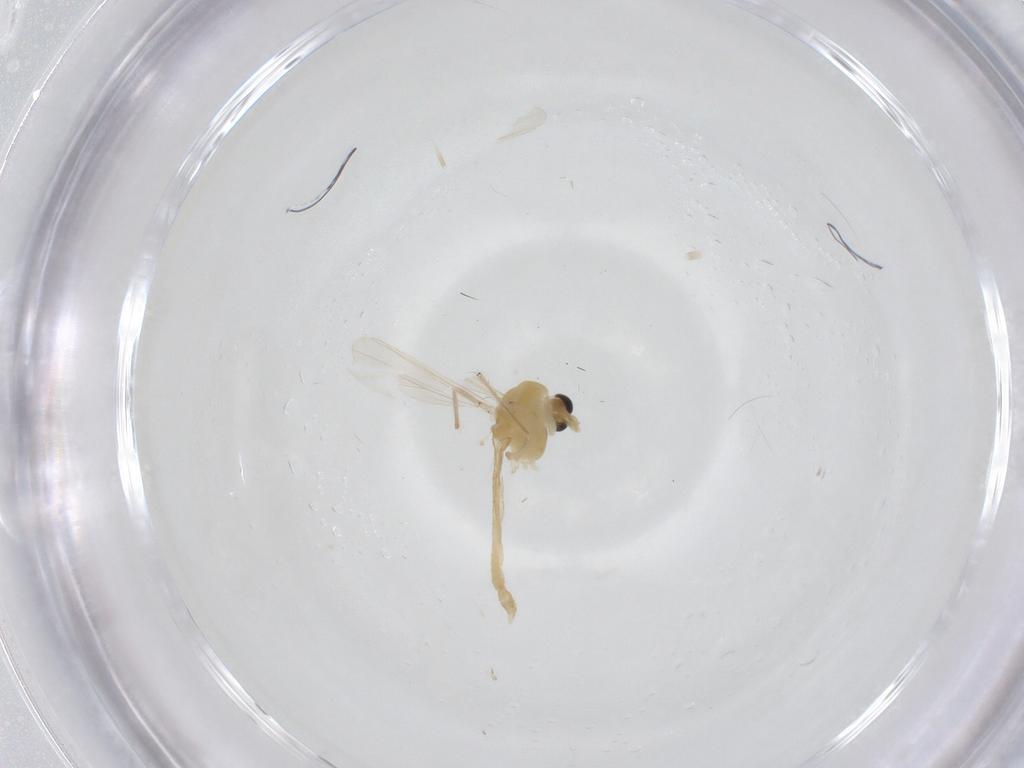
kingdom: Animalia
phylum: Arthropoda
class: Insecta
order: Diptera
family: Chironomidae
